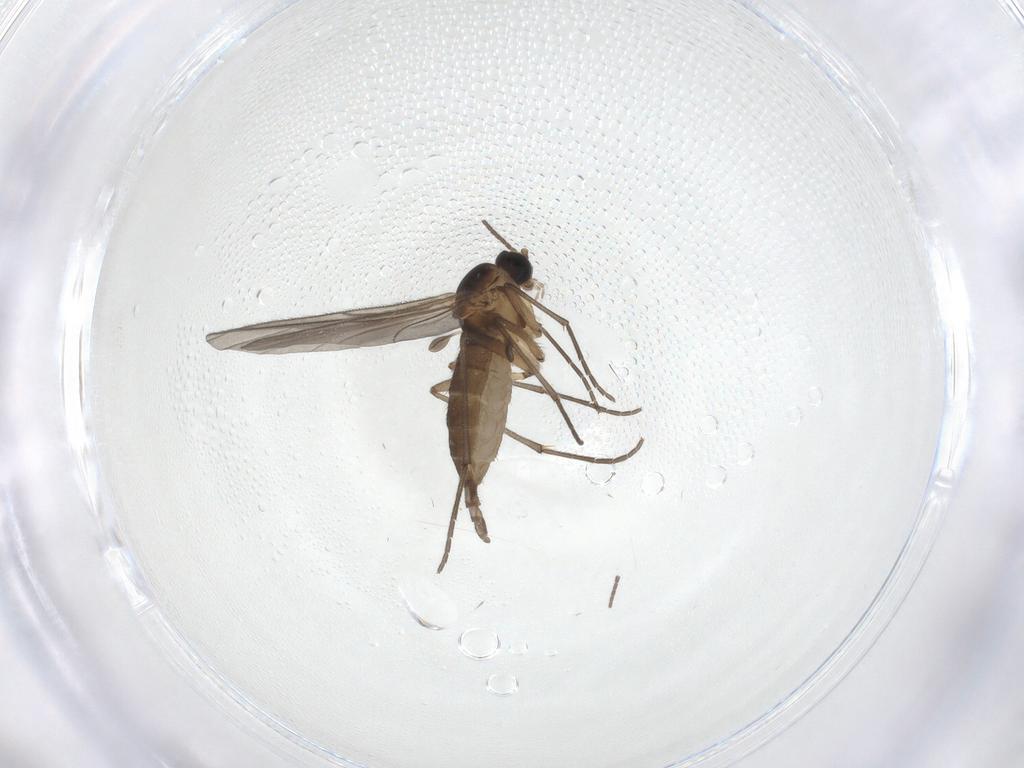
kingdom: Animalia
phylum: Arthropoda
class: Insecta
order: Diptera
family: Sciaridae
